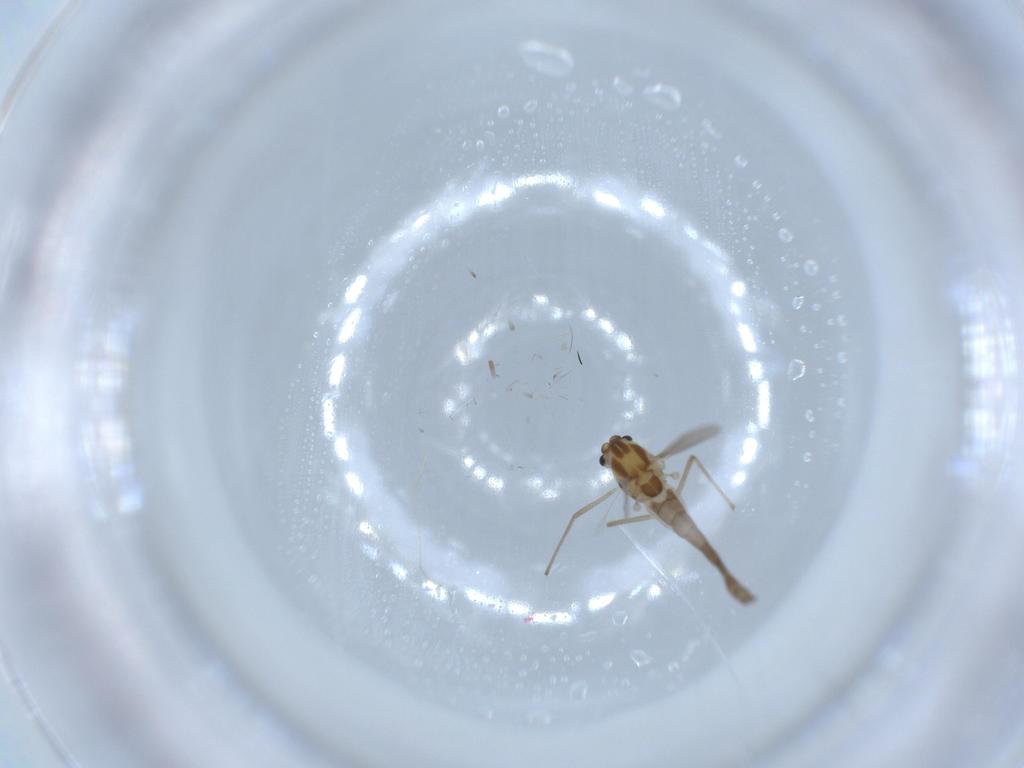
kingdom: Animalia
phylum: Arthropoda
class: Insecta
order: Diptera
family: Chironomidae
